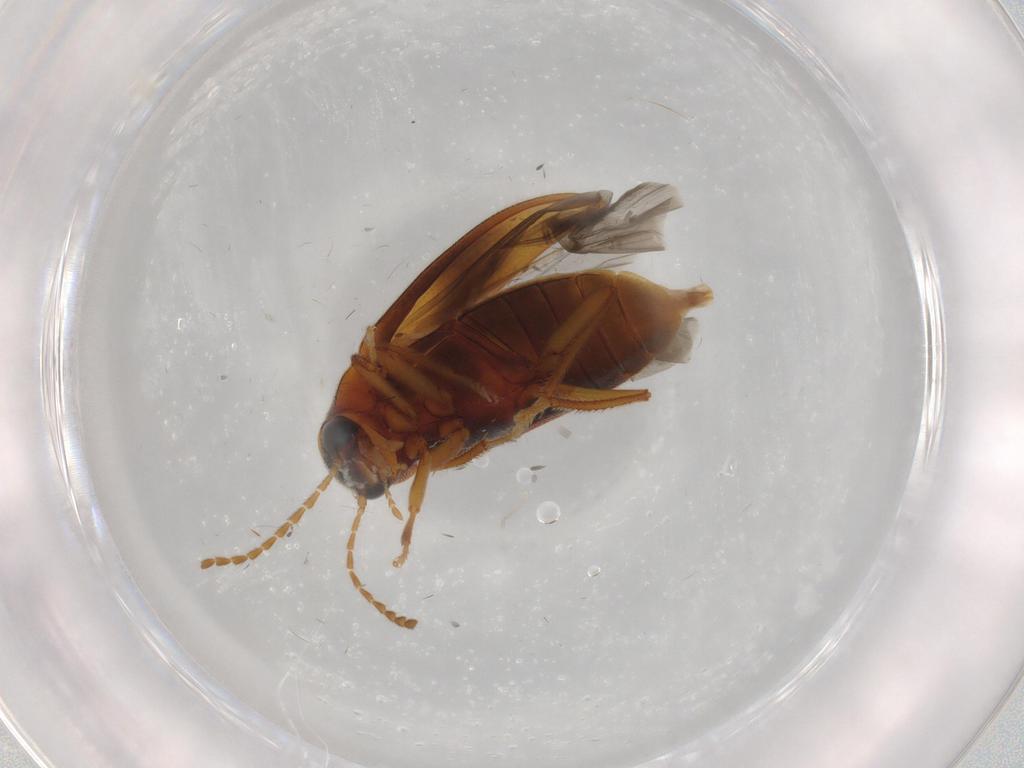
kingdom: Animalia
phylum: Arthropoda
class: Insecta
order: Coleoptera
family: Ptilodactylidae
